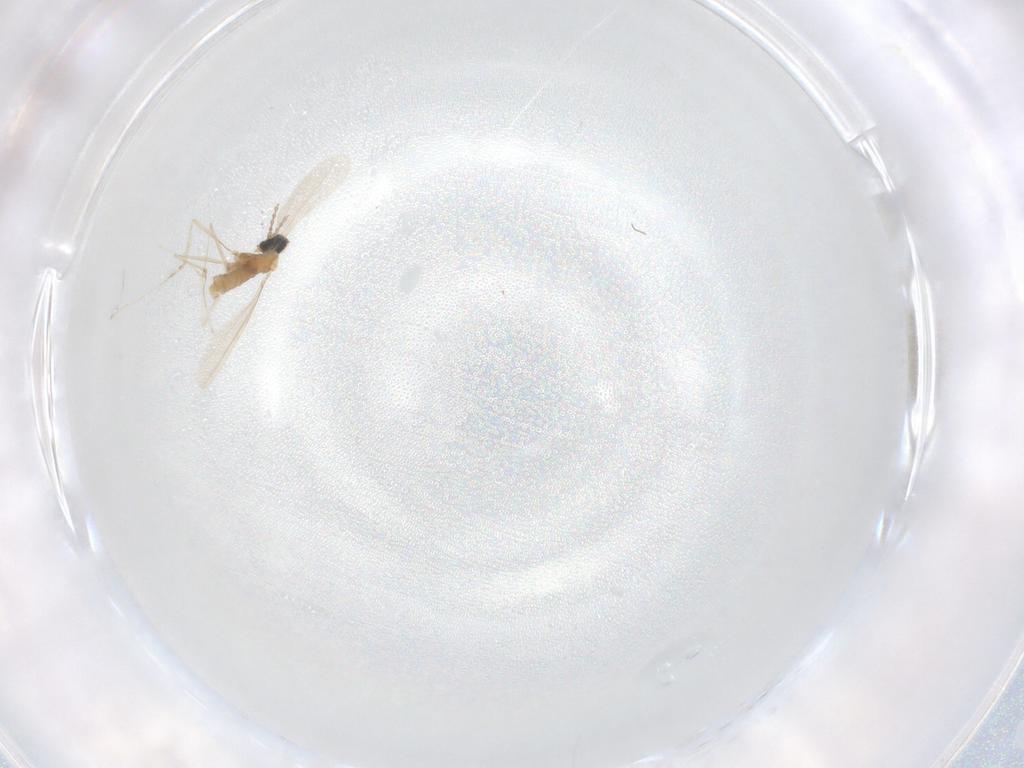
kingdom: Animalia
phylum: Arthropoda
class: Insecta
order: Diptera
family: Cecidomyiidae
